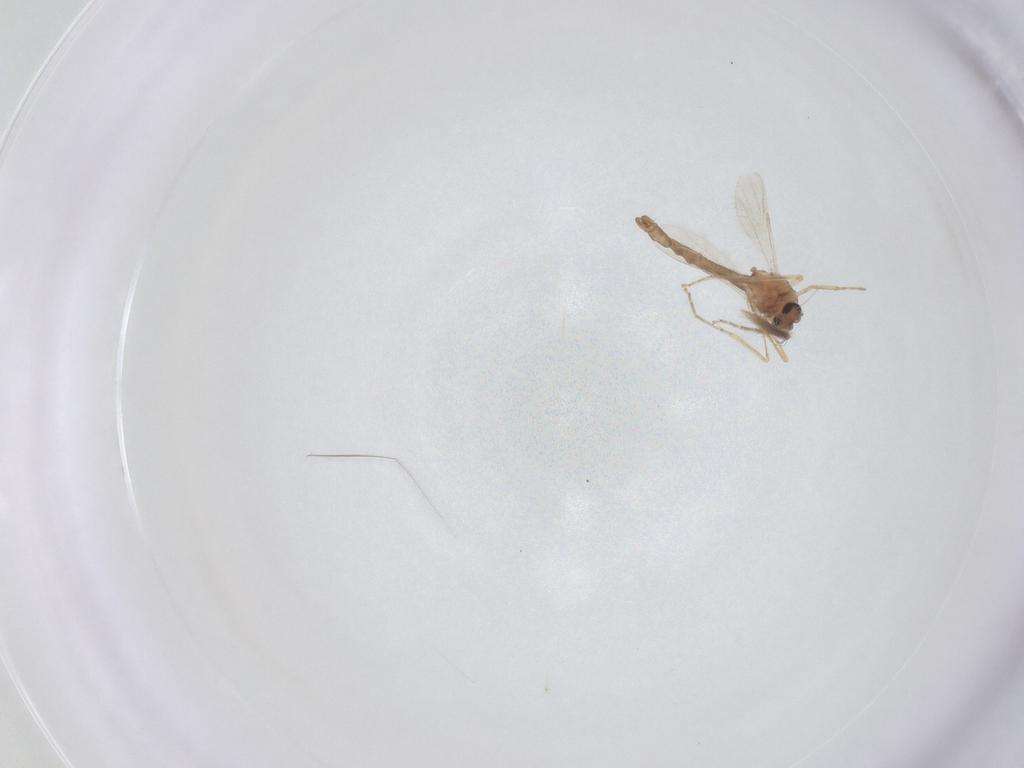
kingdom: Animalia
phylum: Arthropoda
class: Insecta
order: Diptera
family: Ceratopogonidae
